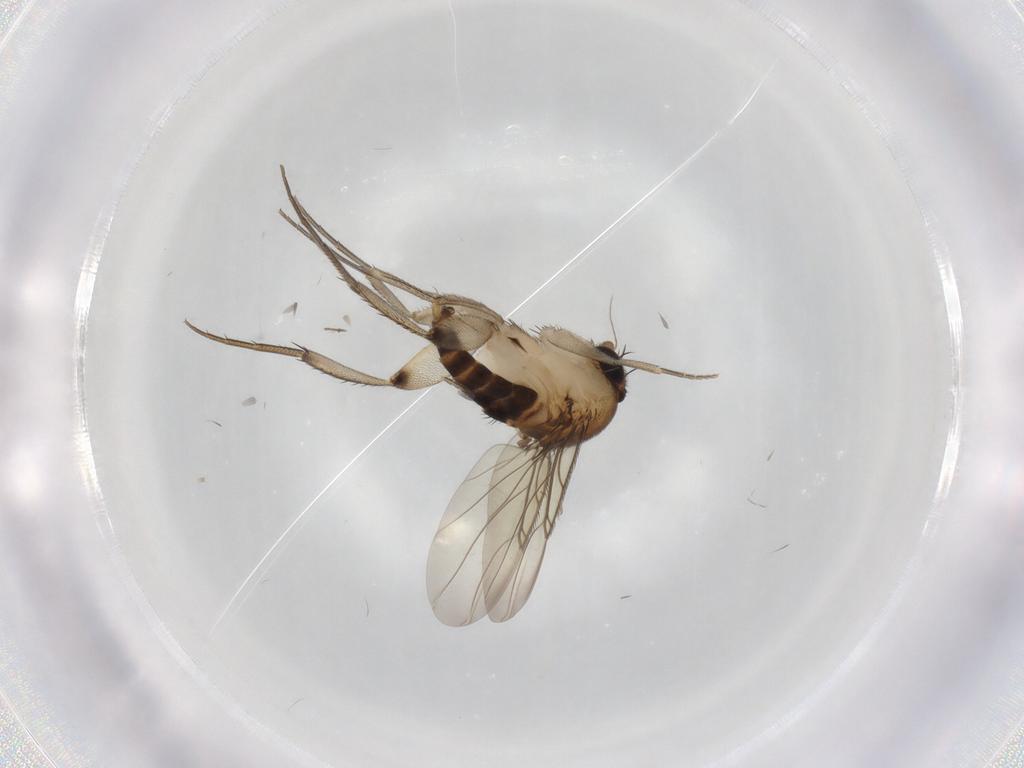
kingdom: Animalia
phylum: Arthropoda
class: Insecta
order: Diptera
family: Phoridae
